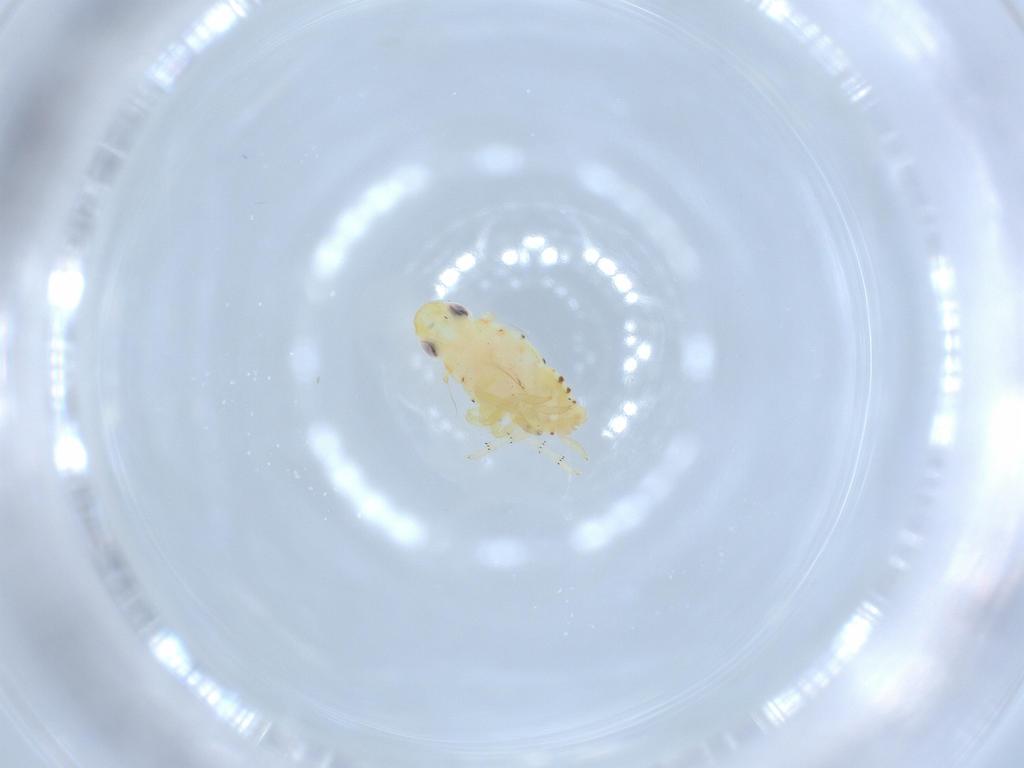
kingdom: Animalia
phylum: Arthropoda
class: Insecta
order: Hemiptera
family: Tropiduchidae
